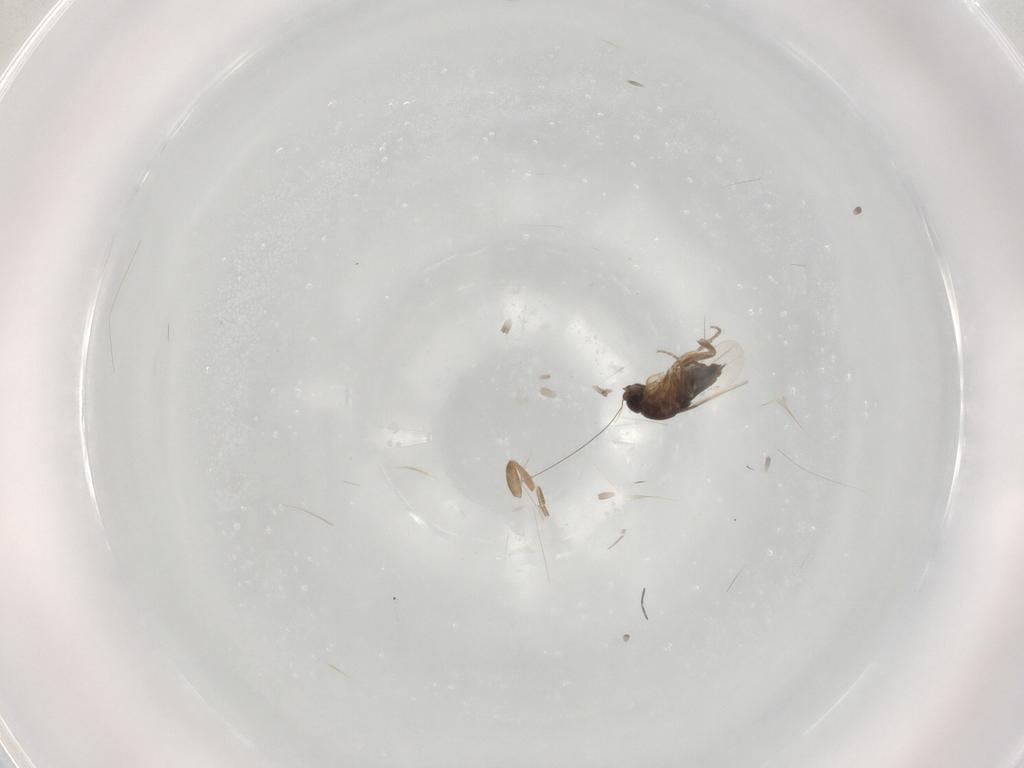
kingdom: Animalia
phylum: Arthropoda
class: Insecta
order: Diptera
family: Phoridae
